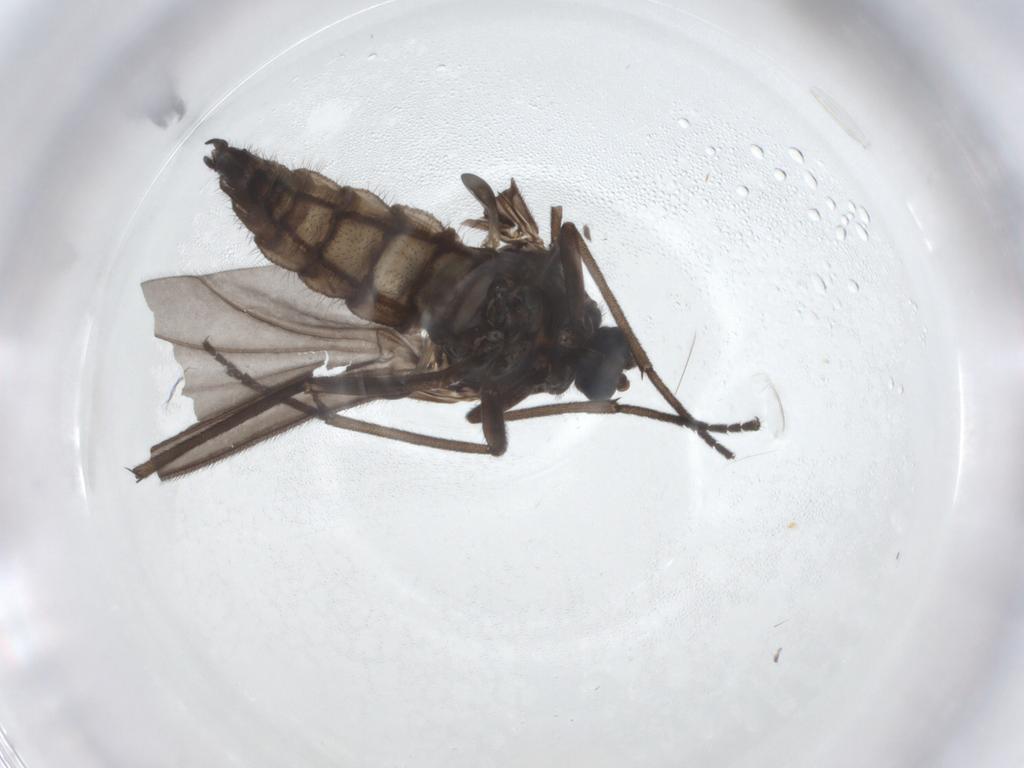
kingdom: Animalia
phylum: Arthropoda
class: Insecta
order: Diptera
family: Sciaridae
